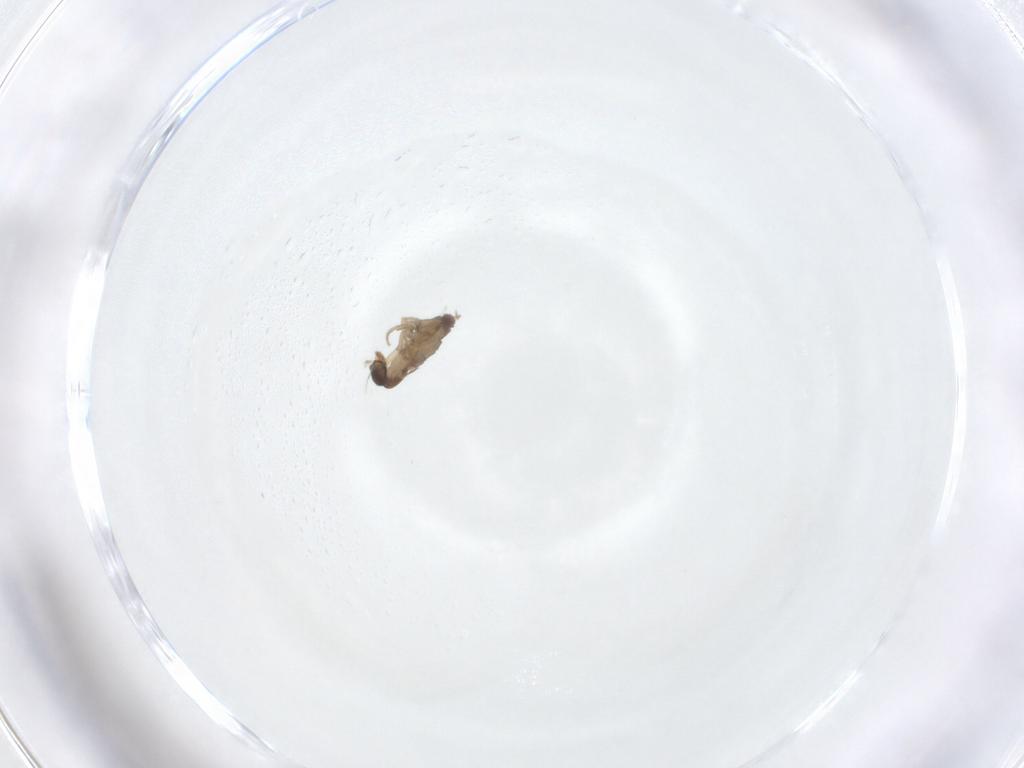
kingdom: Animalia
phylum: Arthropoda
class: Insecta
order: Diptera
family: Phoridae
